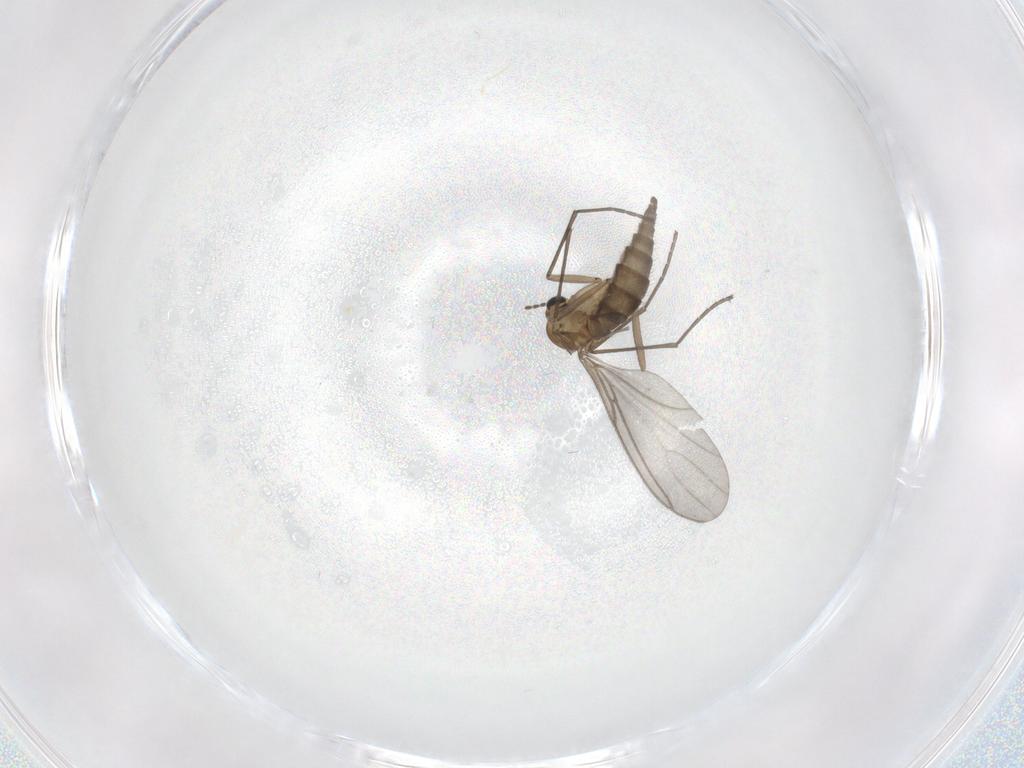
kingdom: Animalia
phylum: Arthropoda
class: Insecta
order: Diptera
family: Sciaridae
